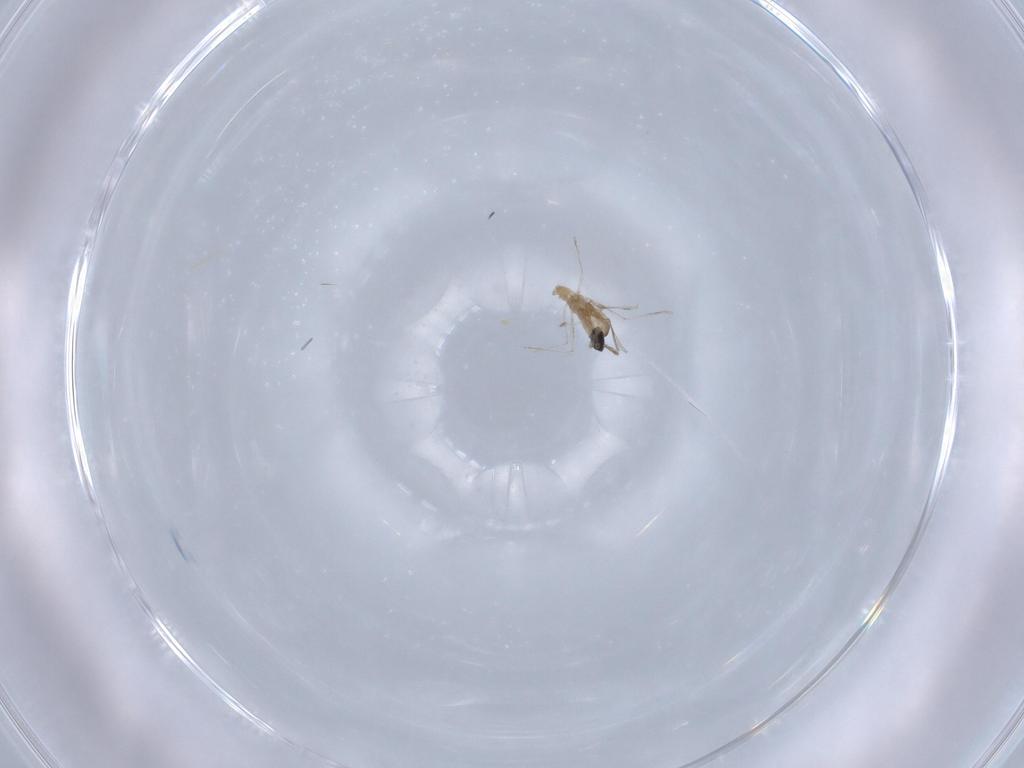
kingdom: Animalia
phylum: Arthropoda
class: Insecta
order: Diptera
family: Cecidomyiidae
